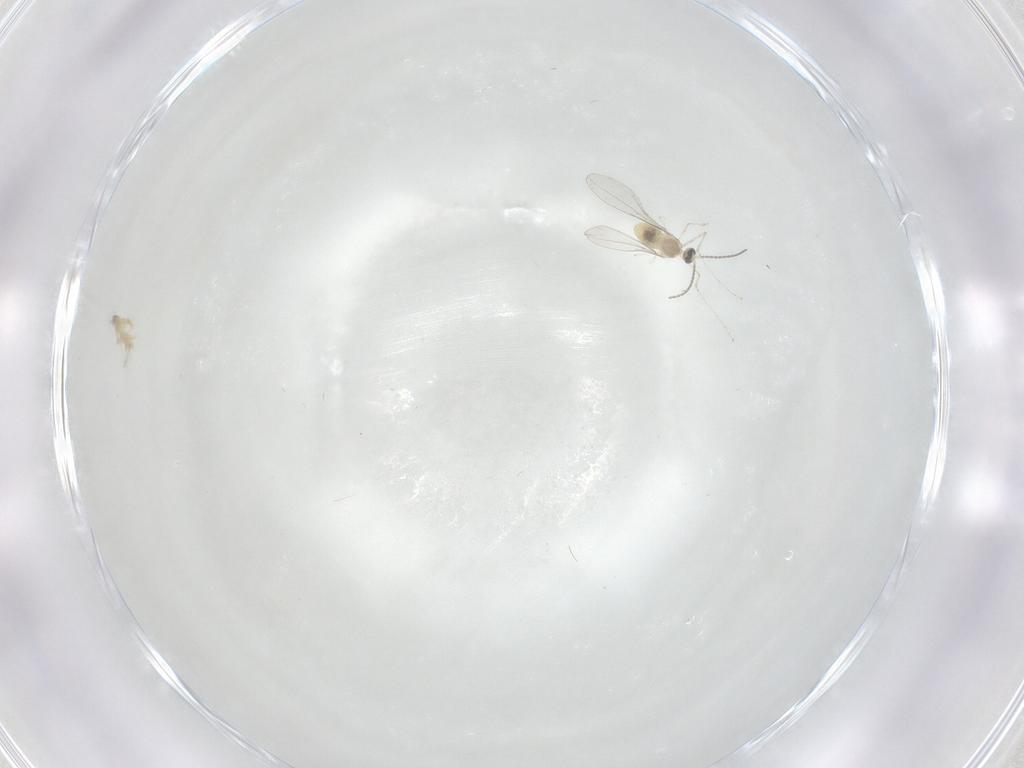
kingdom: Animalia
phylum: Arthropoda
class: Insecta
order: Diptera
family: Cecidomyiidae
